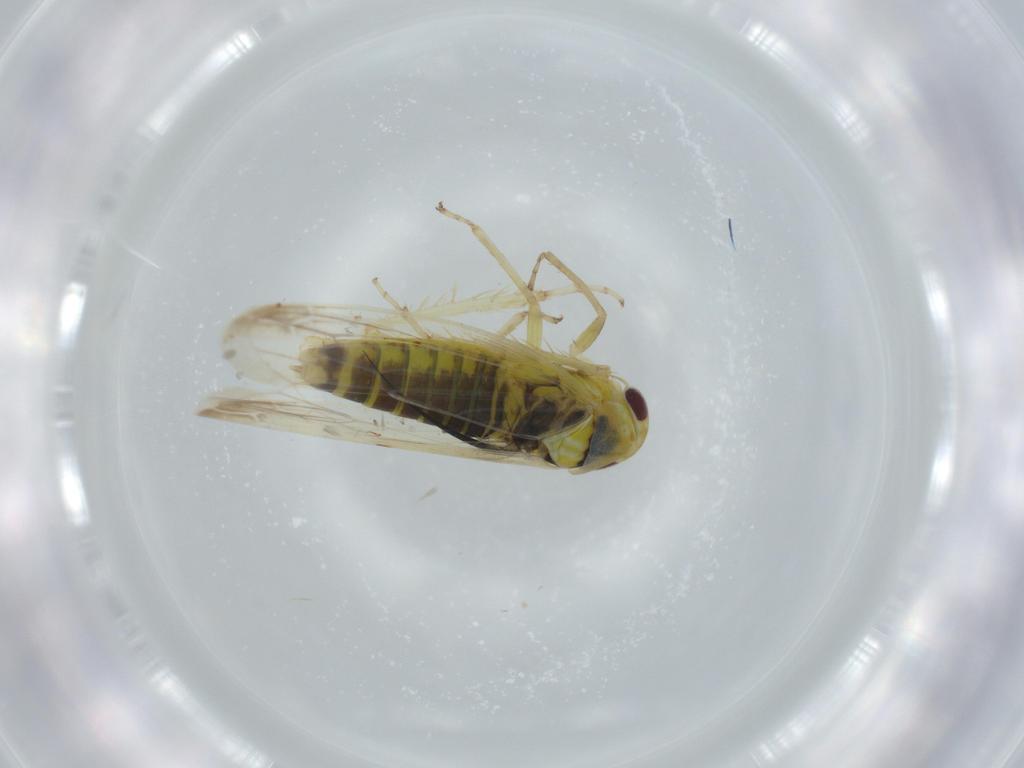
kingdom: Animalia
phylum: Arthropoda
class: Insecta
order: Hemiptera
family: Cicadellidae
